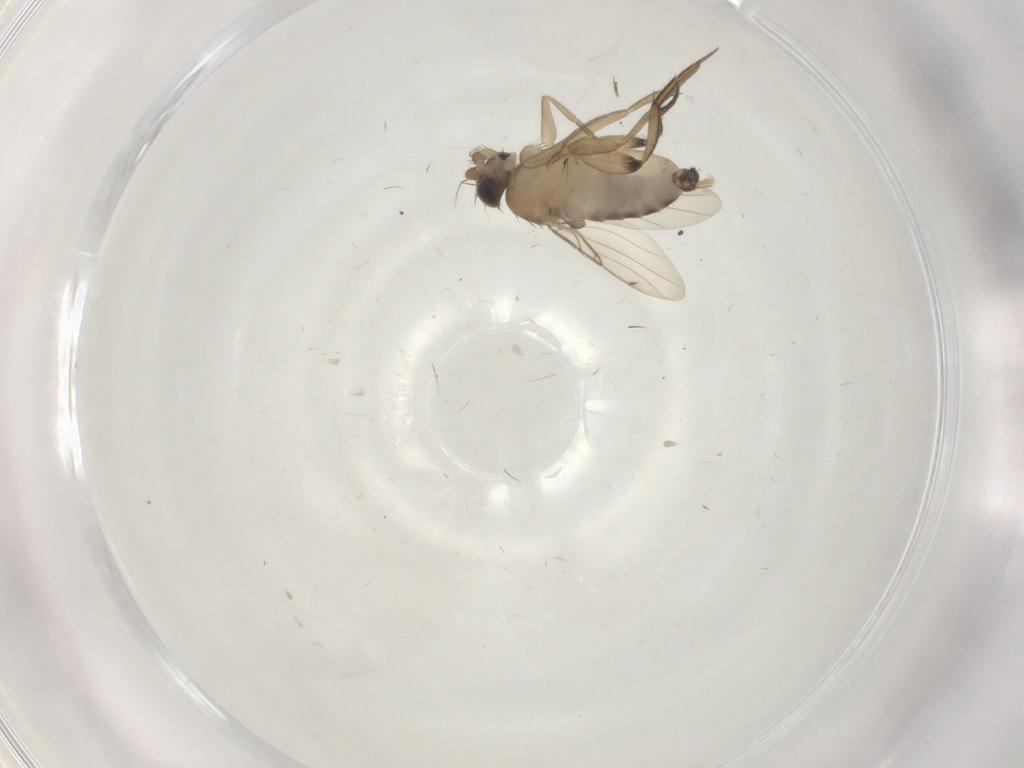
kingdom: Animalia
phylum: Arthropoda
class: Insecta
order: Diptera
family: Phoridae
